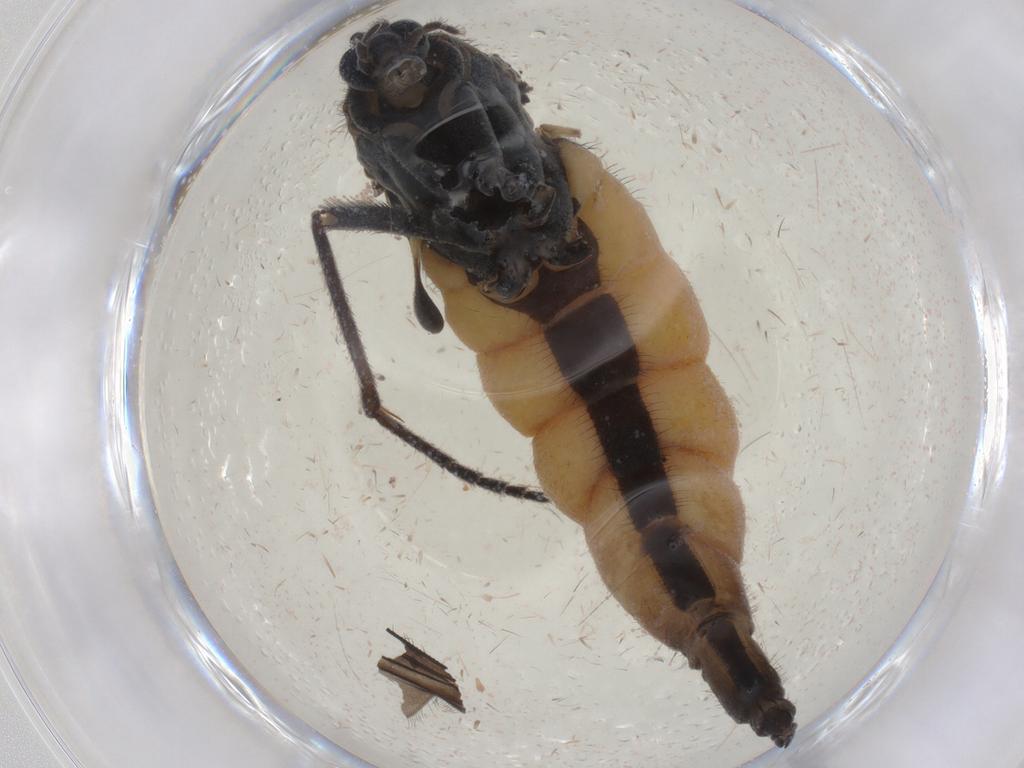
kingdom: Animalia
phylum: Arthropoda
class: Insecta
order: Diptera
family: Sciaridae
